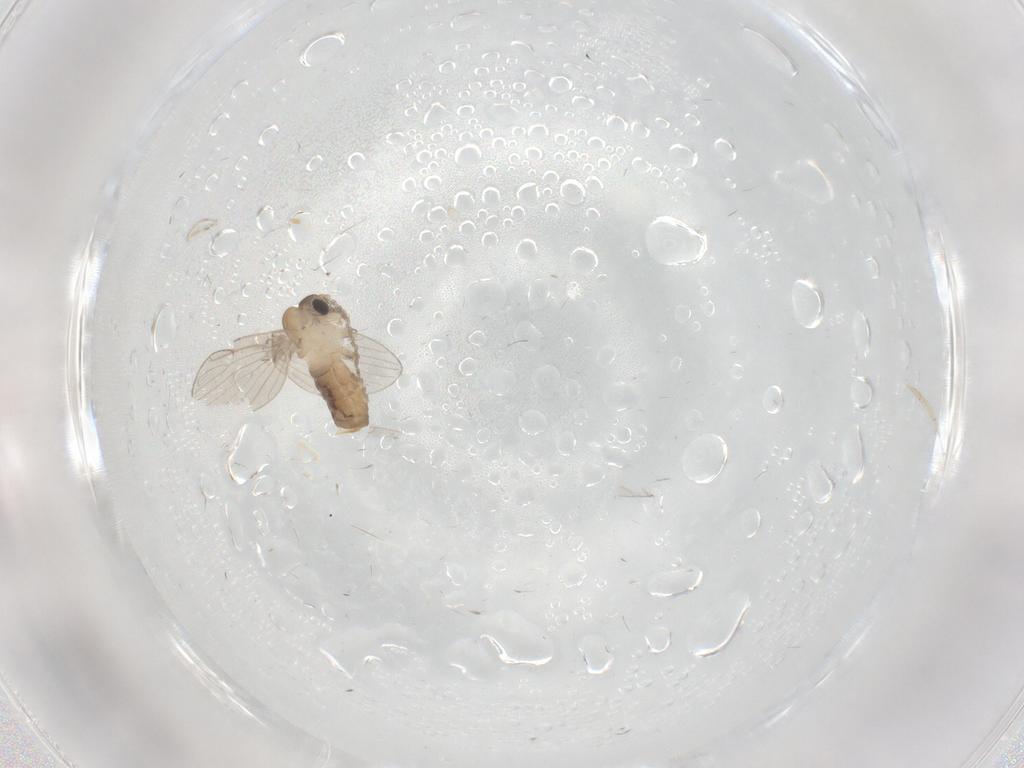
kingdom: Animalia
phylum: Arthropoda
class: Insecta
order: Diptera
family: Psychodidae
